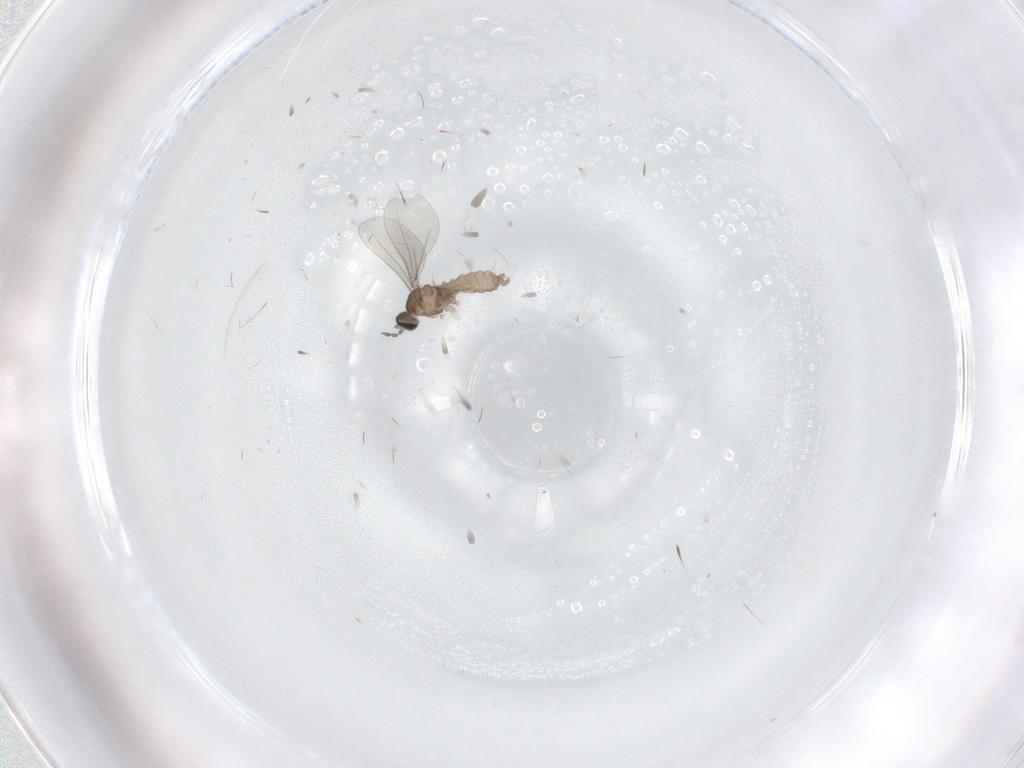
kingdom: Animalia
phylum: Arthropoda
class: Insecta
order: Diptera
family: Sciaridae
